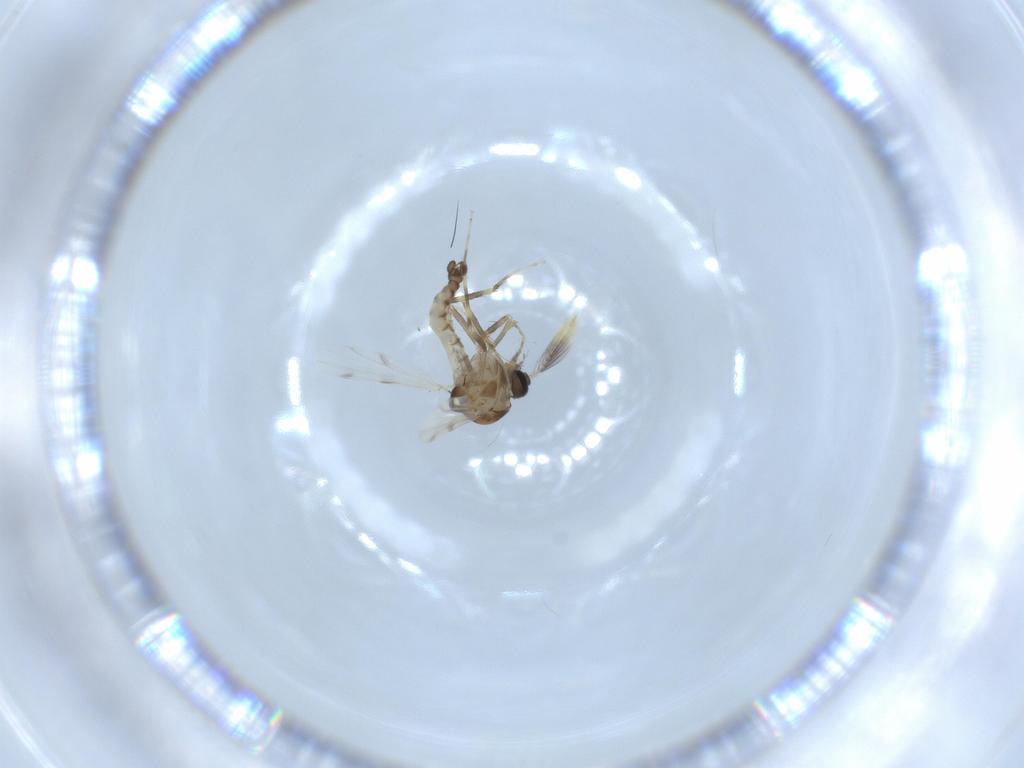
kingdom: Animalia
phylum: Arthropoda
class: Insecta
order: Diptera
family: Ceratopogonidae
